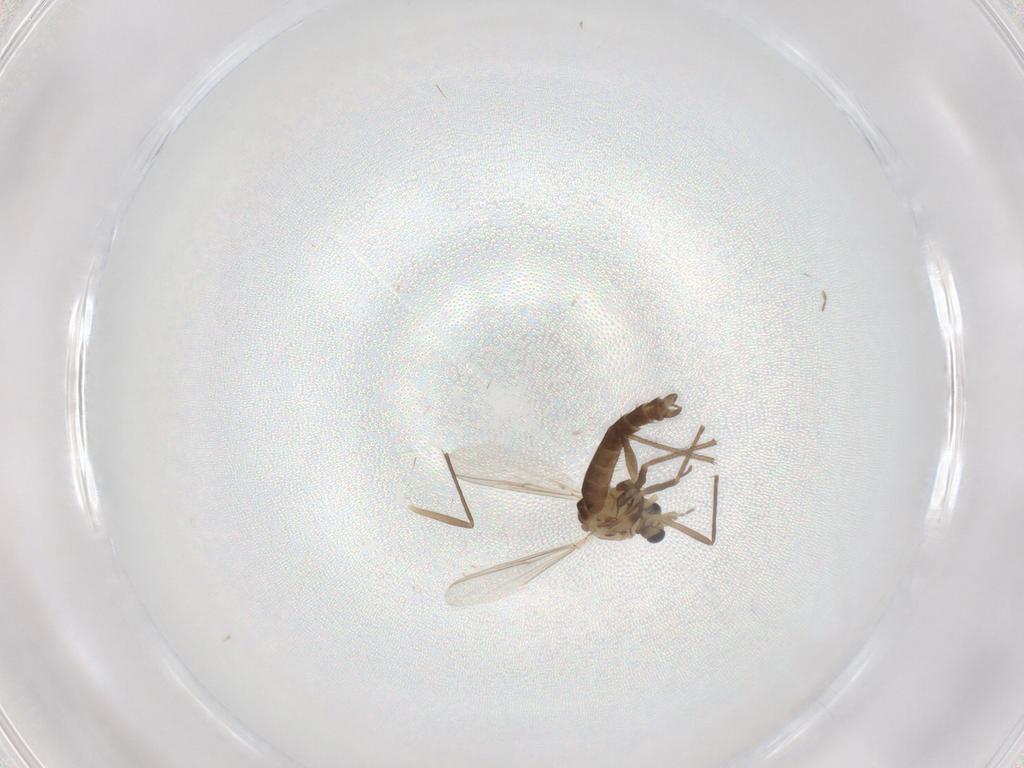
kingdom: Animalia
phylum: Arthropoda
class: Insecta
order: Diptera
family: Chironomidae
